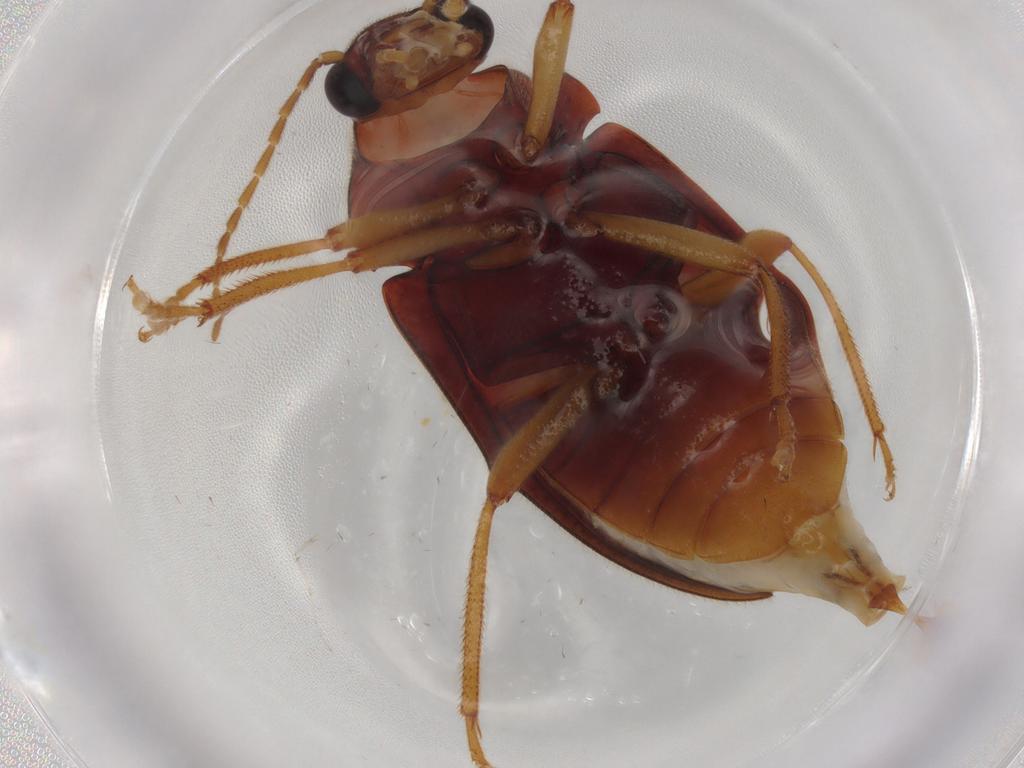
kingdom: Animalia
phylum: Arthropoda
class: Insecta
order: Coleoptera
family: Ptilodactylidae
